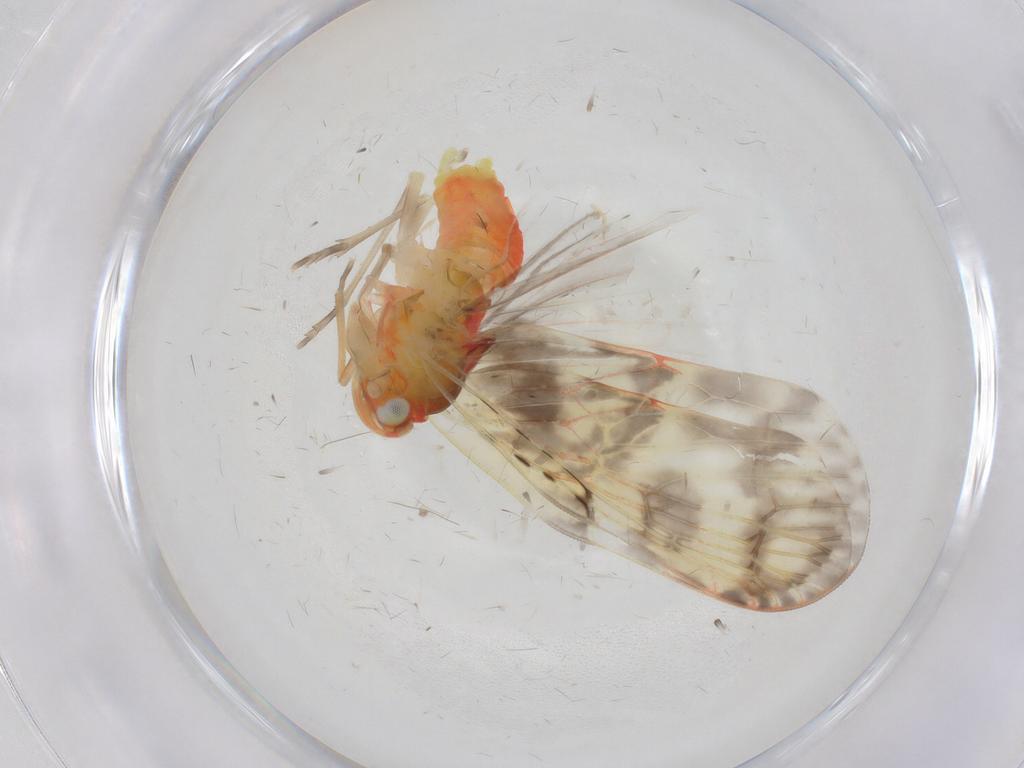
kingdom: Animalia
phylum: Arthropoda
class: Insecta
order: Hemiptera
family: Derbidae
